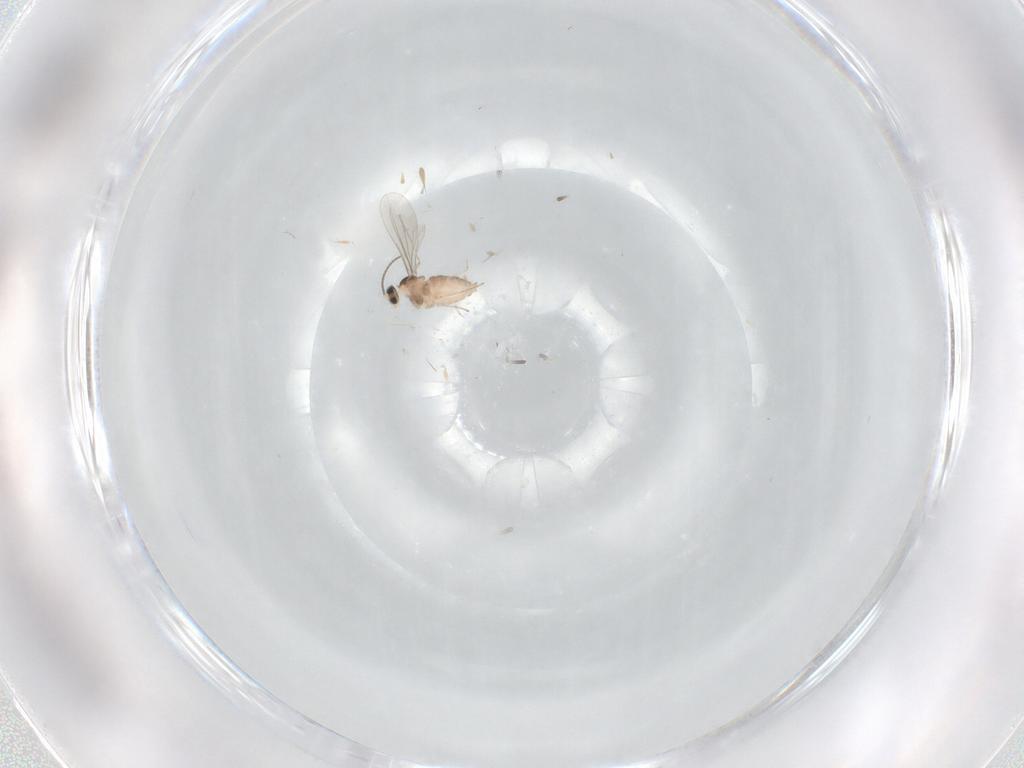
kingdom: Animalia
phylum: Arthropoda
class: Insecta
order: Diptera
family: Cecidomyiidae
